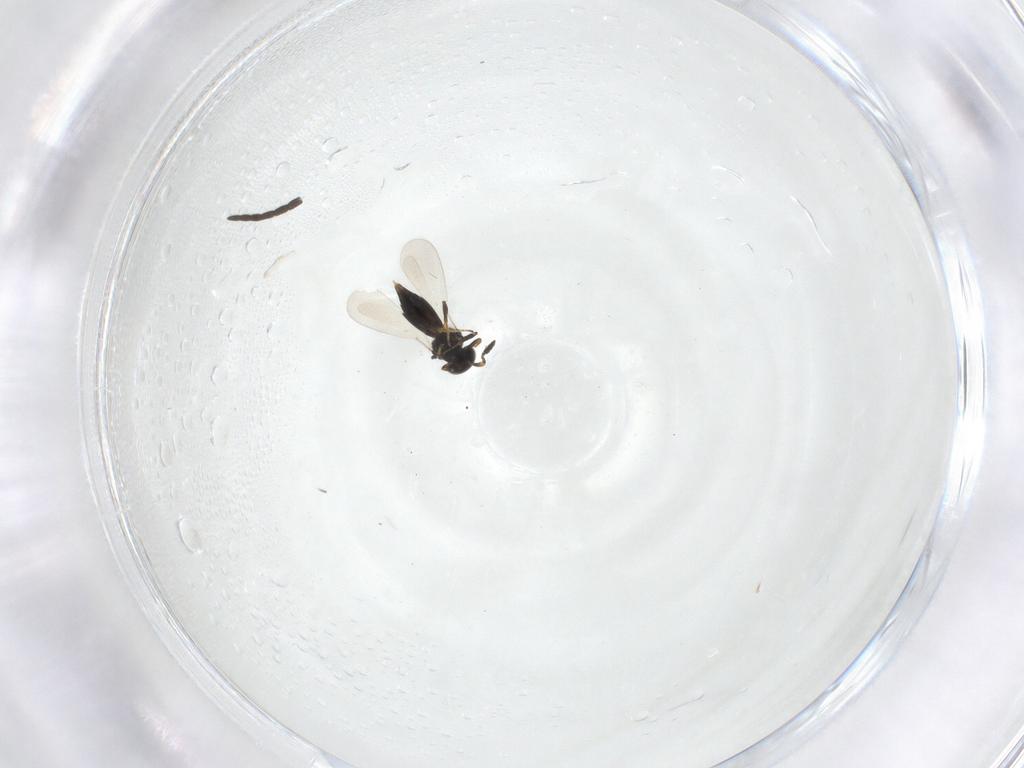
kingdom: Animalia
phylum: Arthropoda
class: Insecta
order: Hymenoptera
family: Platygastridae
